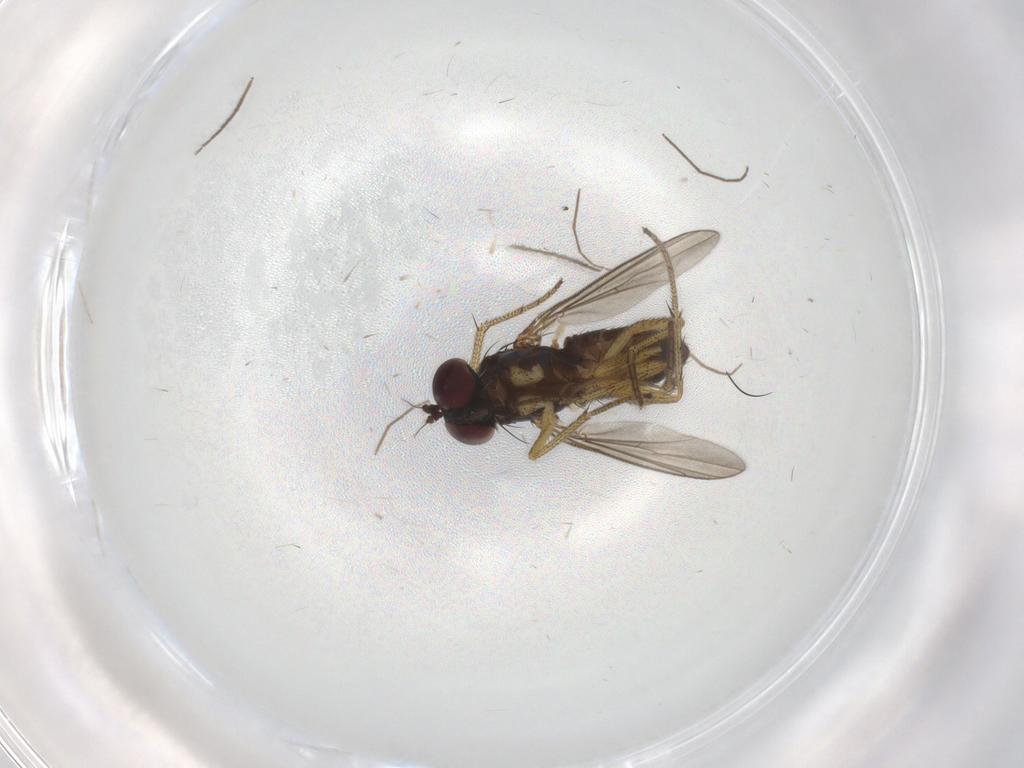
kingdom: Animalia
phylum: Arthropoda
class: Insecta
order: Diptera
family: Chironomidae
